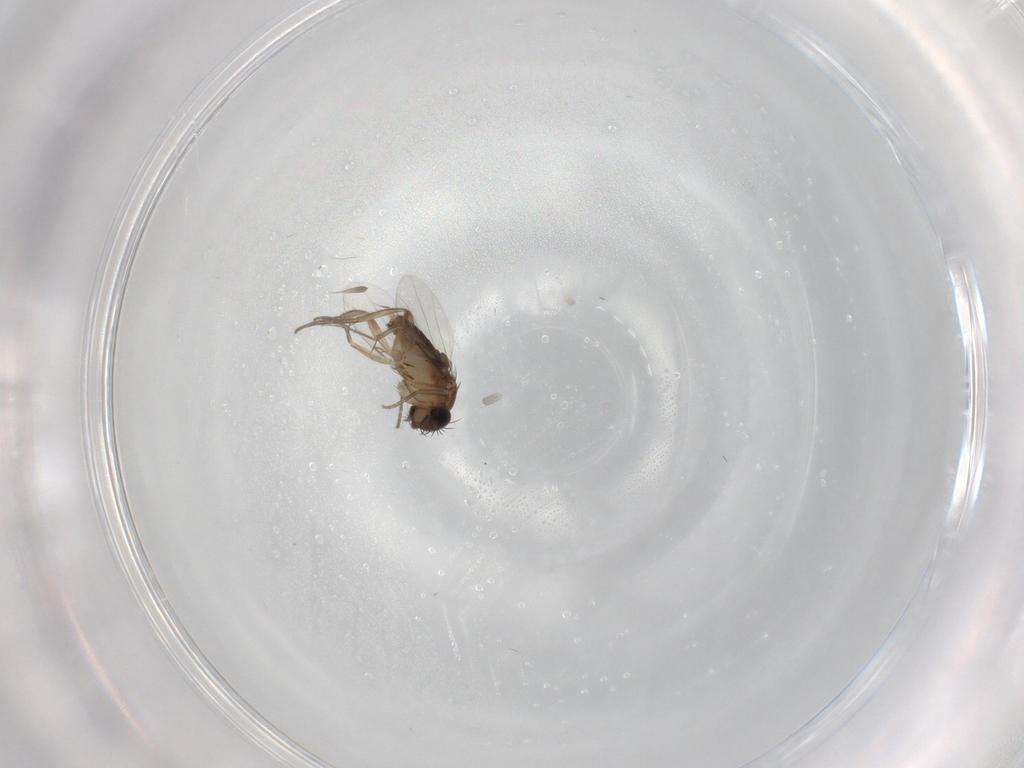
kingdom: Animalia
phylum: Arthropoda
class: Insecta
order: Diptera
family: Phoridae
